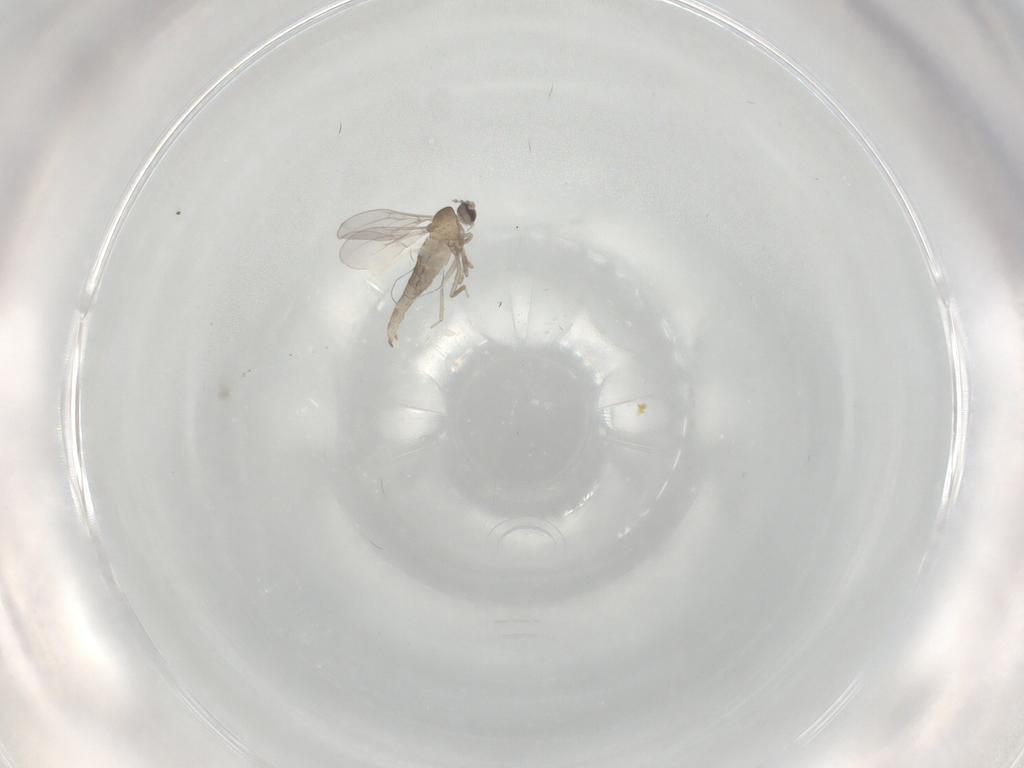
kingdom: Animalia
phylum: Arthropoda
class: Insecta
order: Diptera
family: Cecidomyiidae
